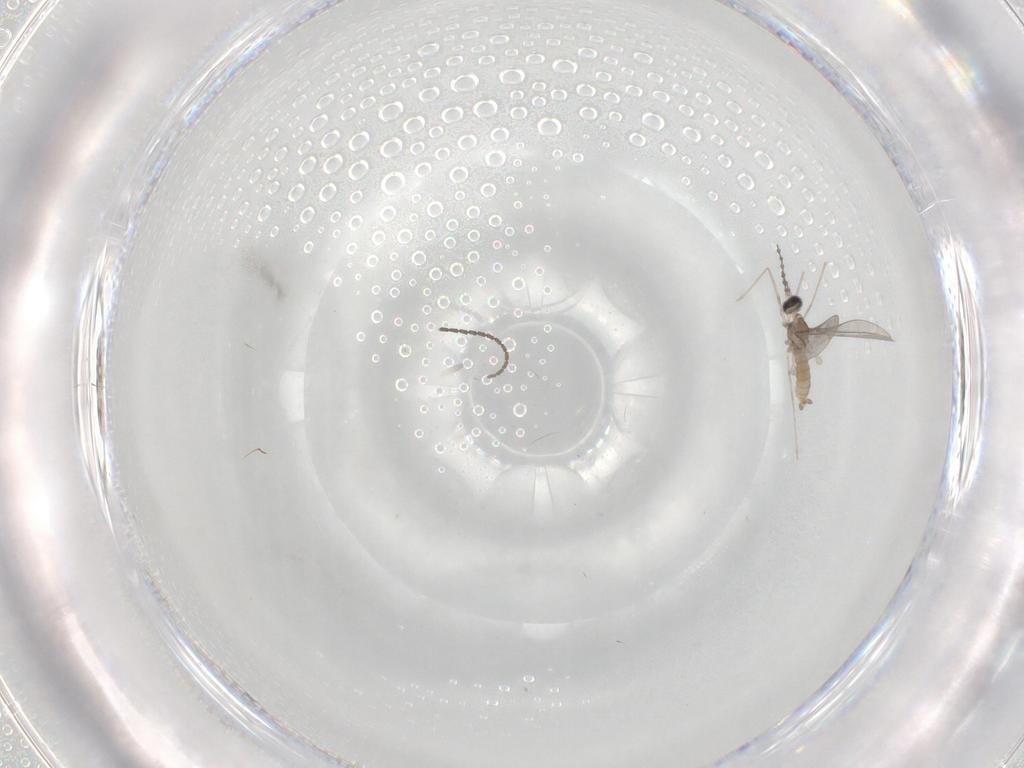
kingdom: Animalia
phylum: Arthropoda
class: Insecta
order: Diptera
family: Cecidomyiidae
